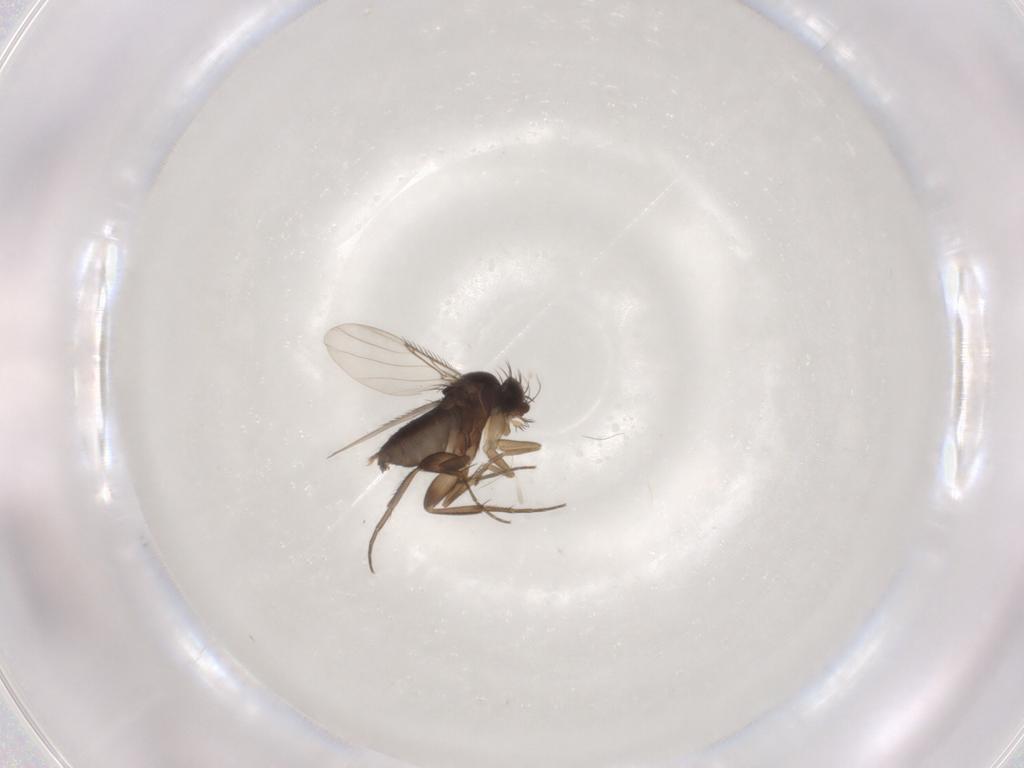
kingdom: Animalia
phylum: Arthropoda
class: Insecta
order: Diptera
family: Phoridae
